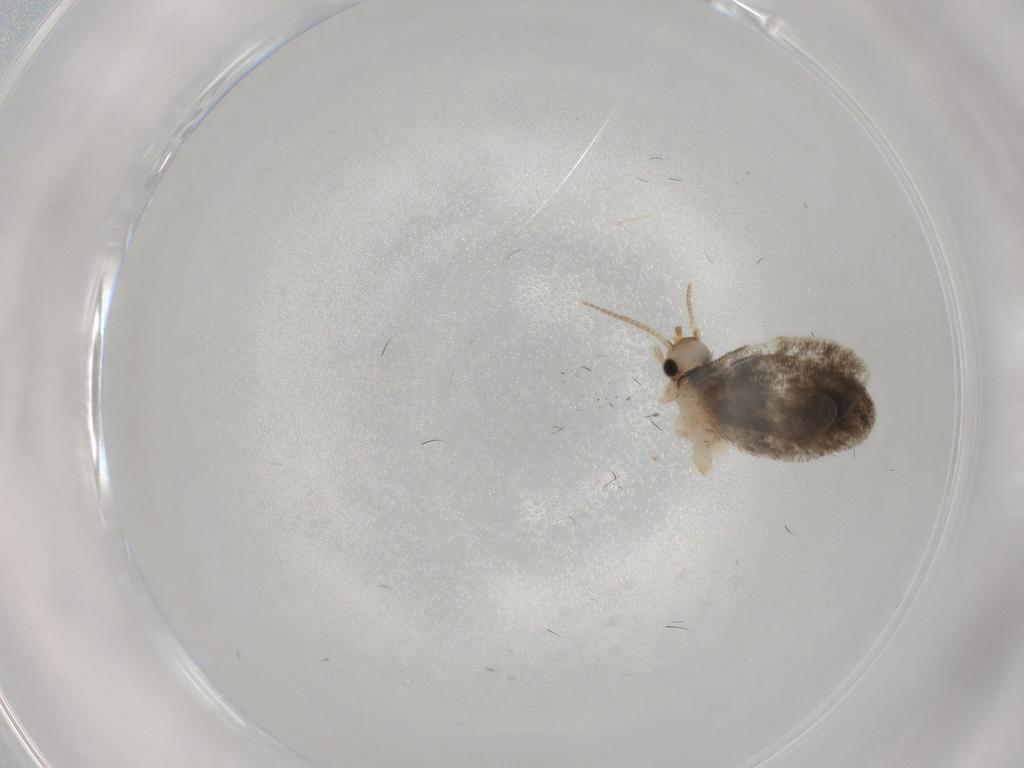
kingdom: Animalia
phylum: Arthropoda
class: Insecta
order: Lepidoptera
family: Psychidae
